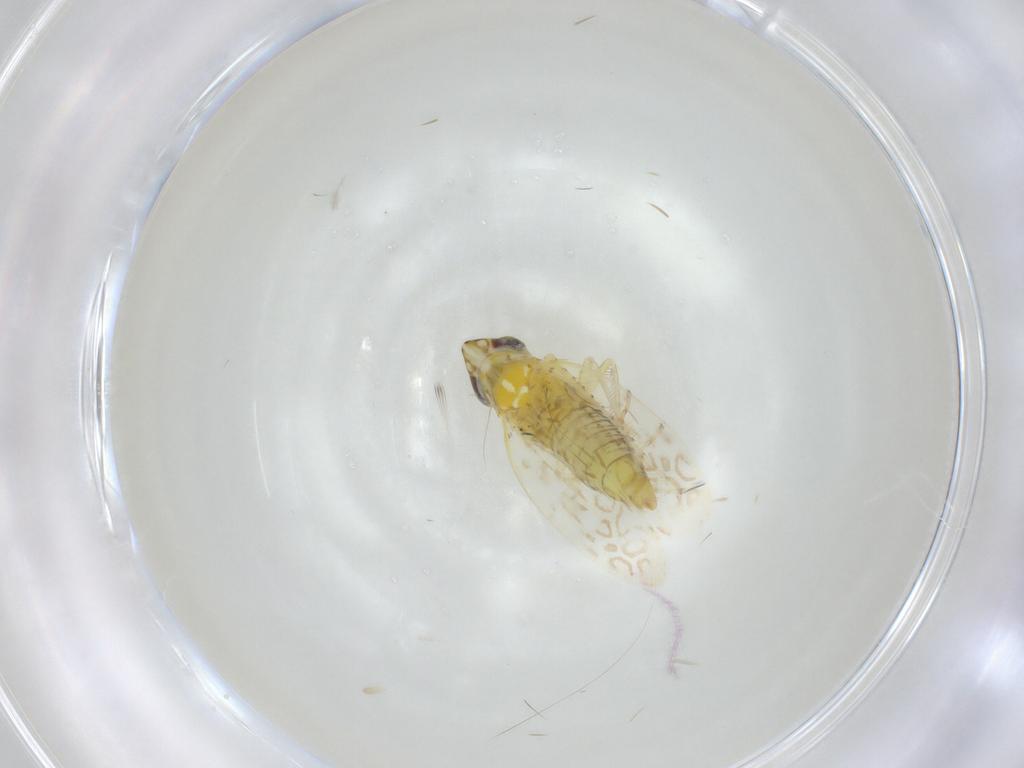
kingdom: Animalia
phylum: Arthropoda
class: Insecta
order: Hemiptera
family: Cicadellidae
